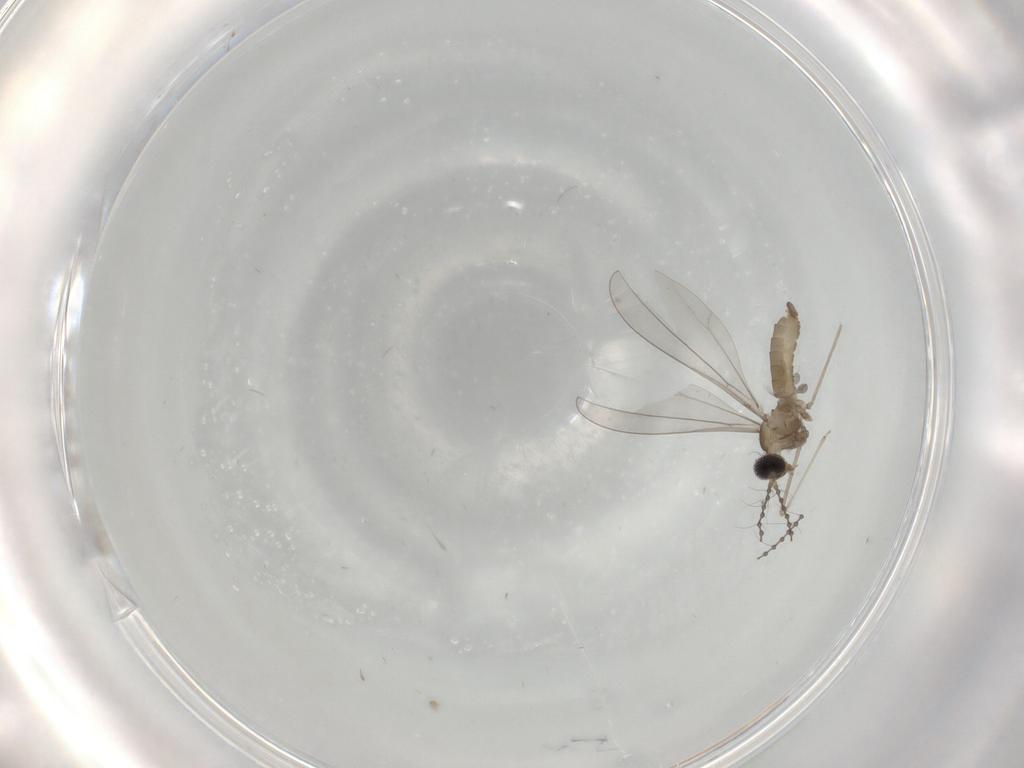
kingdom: Animalia
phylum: Arthropoda
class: Insecta
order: Diptera
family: Cecidomyiidae
